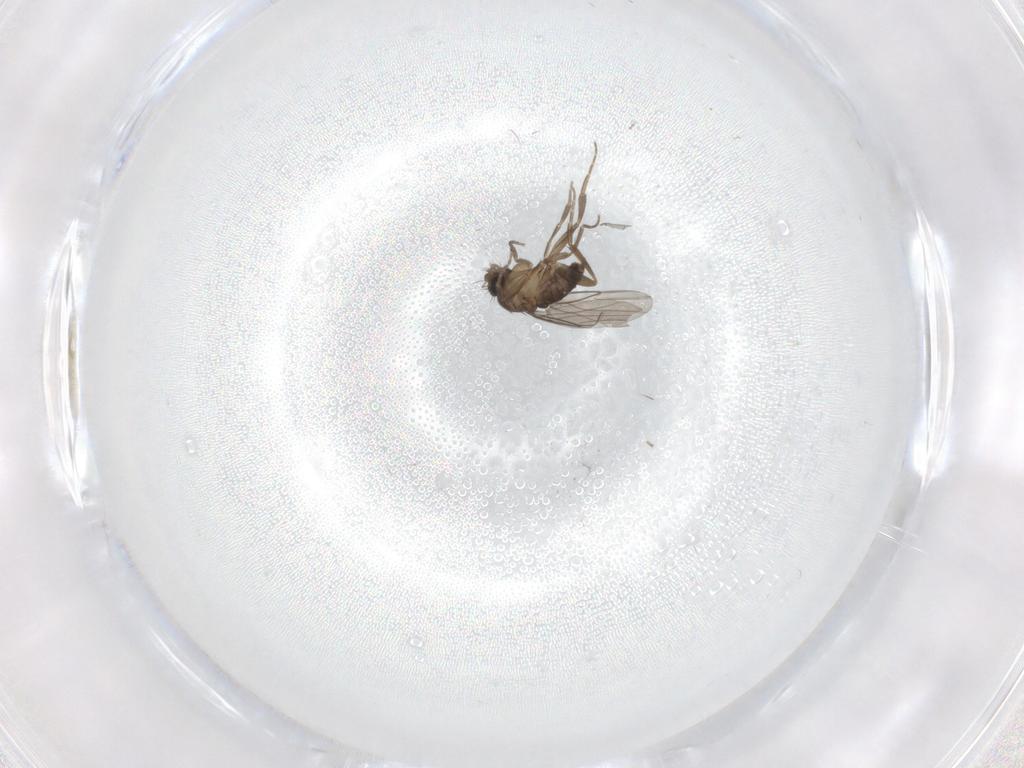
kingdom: Animalia
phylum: Arthropoda
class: Insecta
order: Diptera
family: Cecidomyiidae
